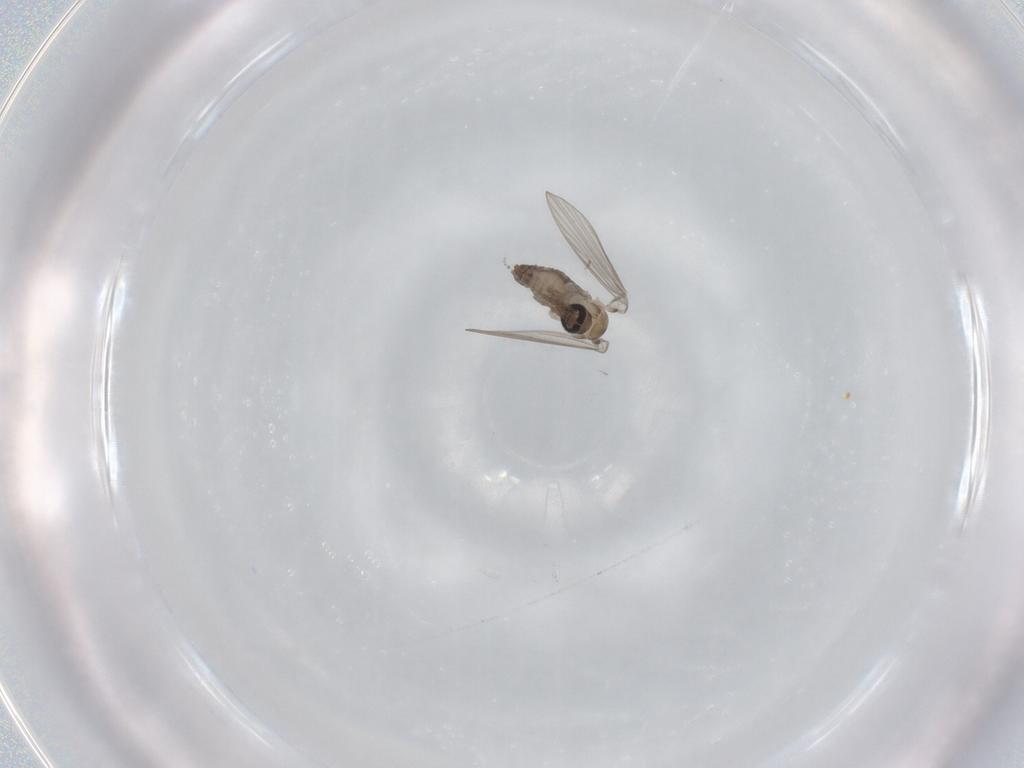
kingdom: Animalia
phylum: Arthropoda
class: Insecta
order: Diptera
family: Psychodidae
